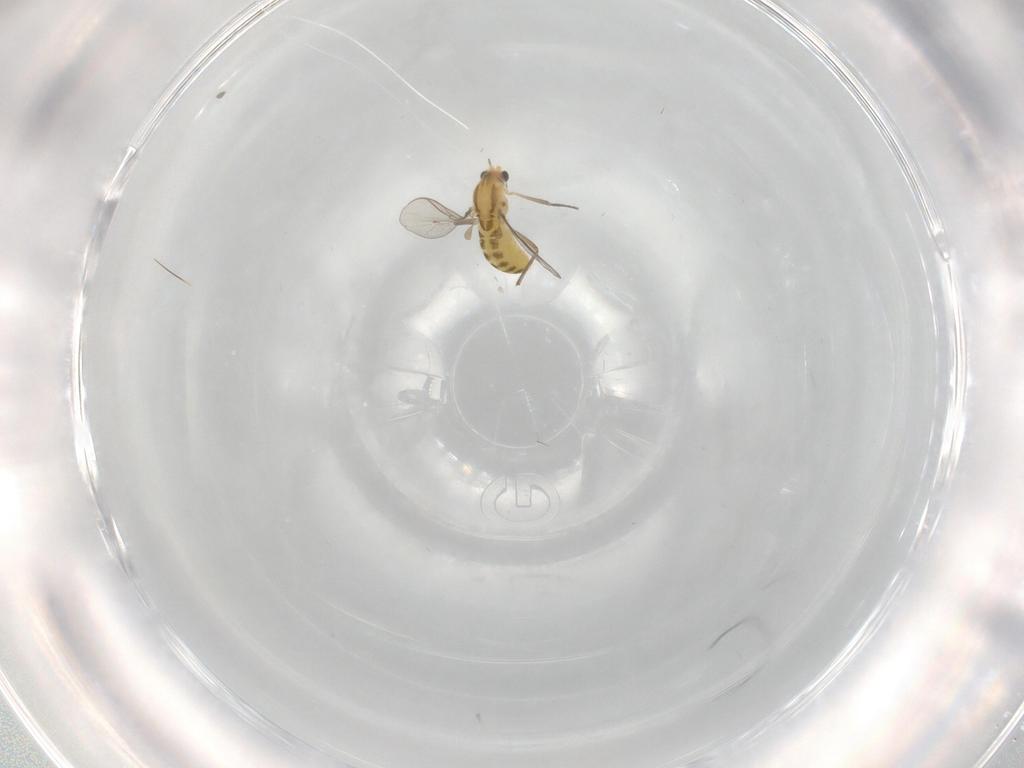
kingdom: Animalia
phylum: Arthropoda
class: Insecta
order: Diptera
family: Chironomidae
